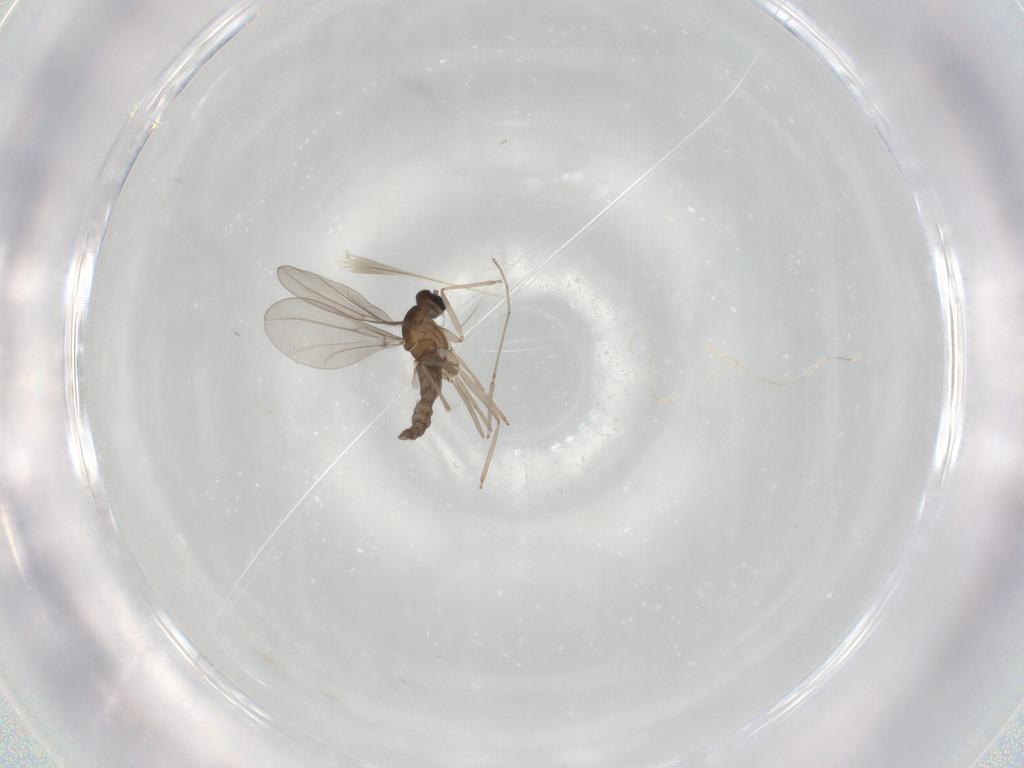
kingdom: Animalia
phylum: Arthropoda
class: Insecta
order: Diptera
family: Cecidomyiidae
